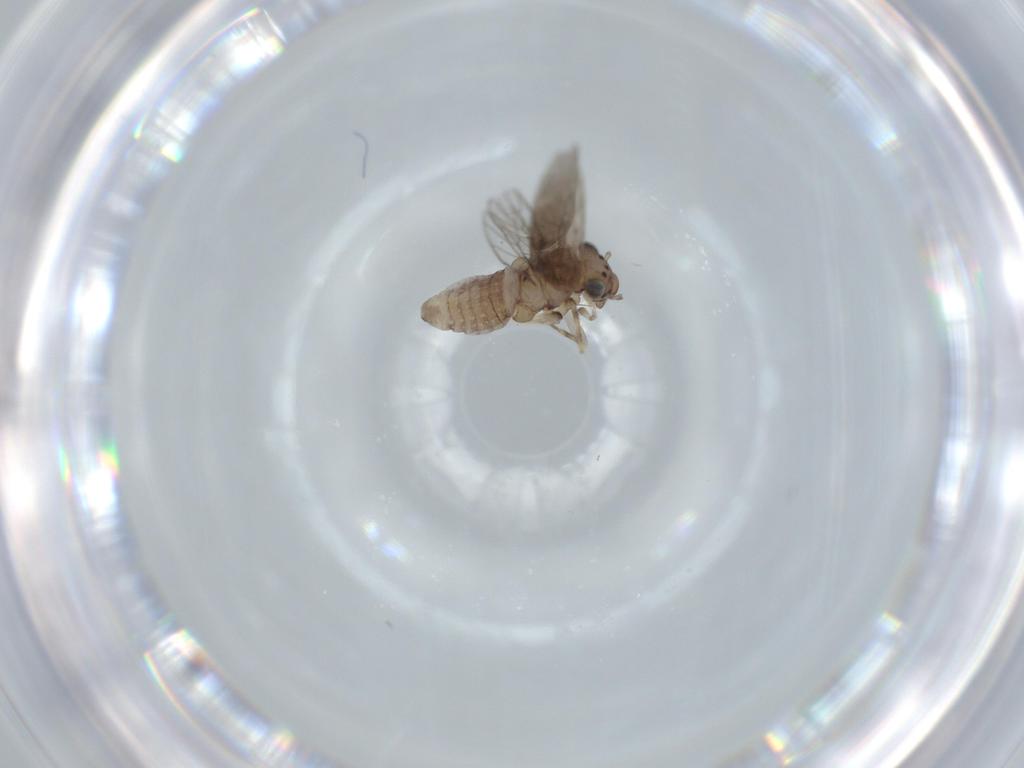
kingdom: Animalia
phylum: Arthropoda
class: Insecta
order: Psocodea
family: Lepidopsocidae
